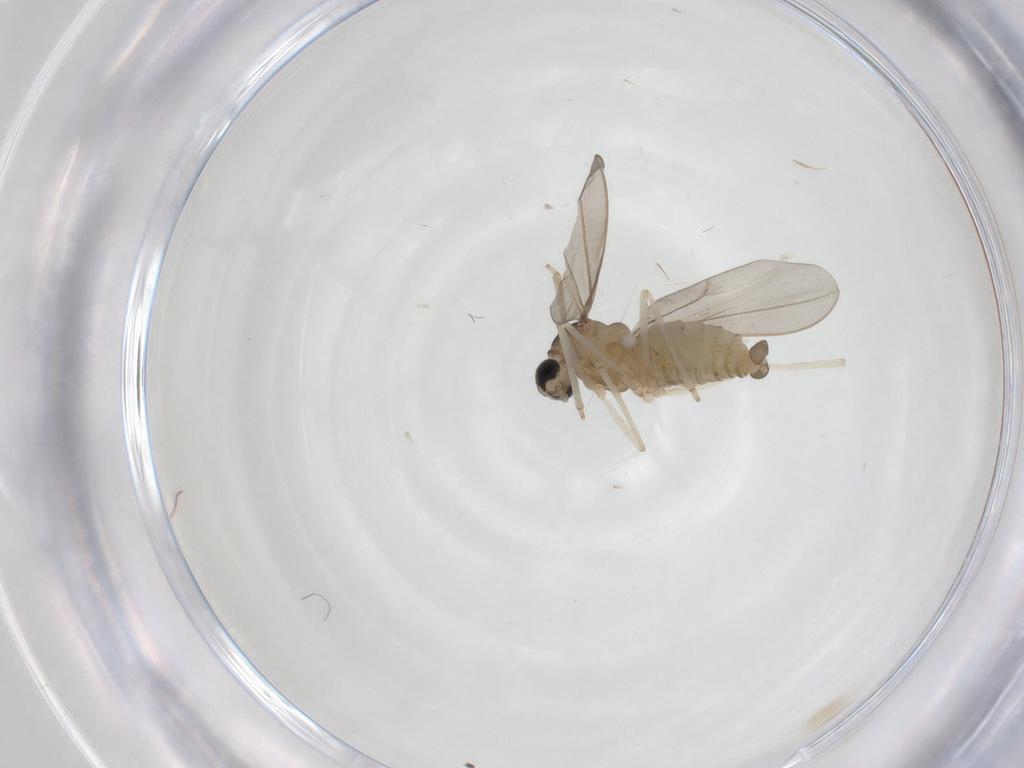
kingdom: Animalia
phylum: Arthropoda
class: Insecta
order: Diptera
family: Cecidomyiidae
